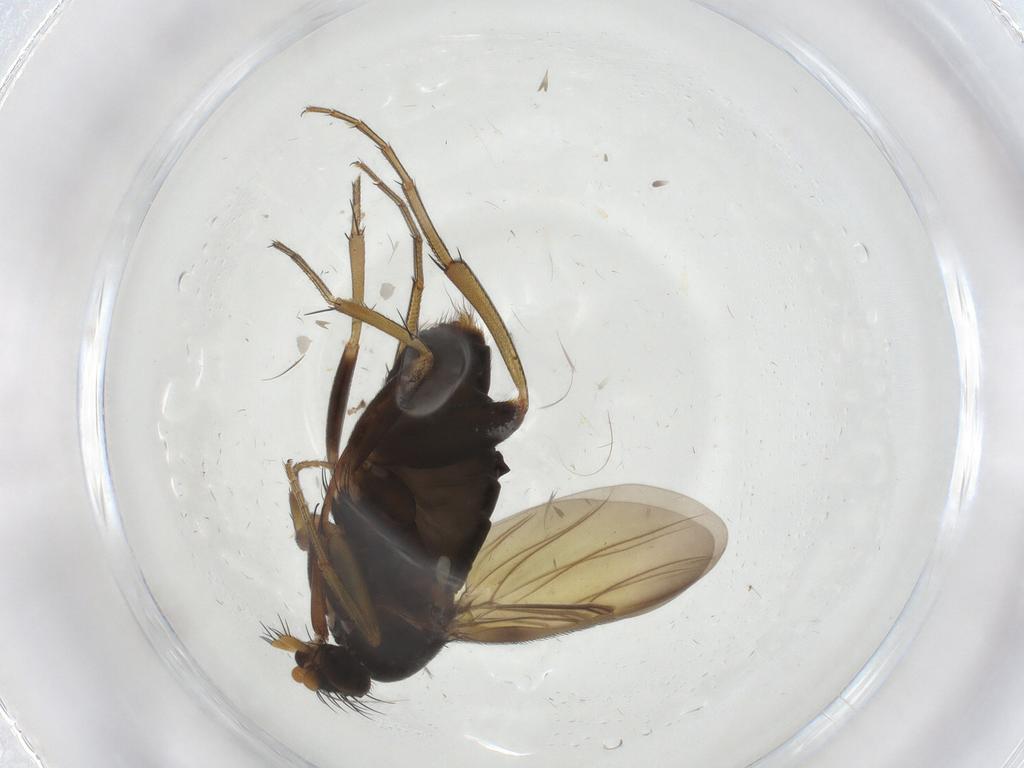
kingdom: Animalia
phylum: Arthropoda
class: Insecta
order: Diptera
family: Phoridae
